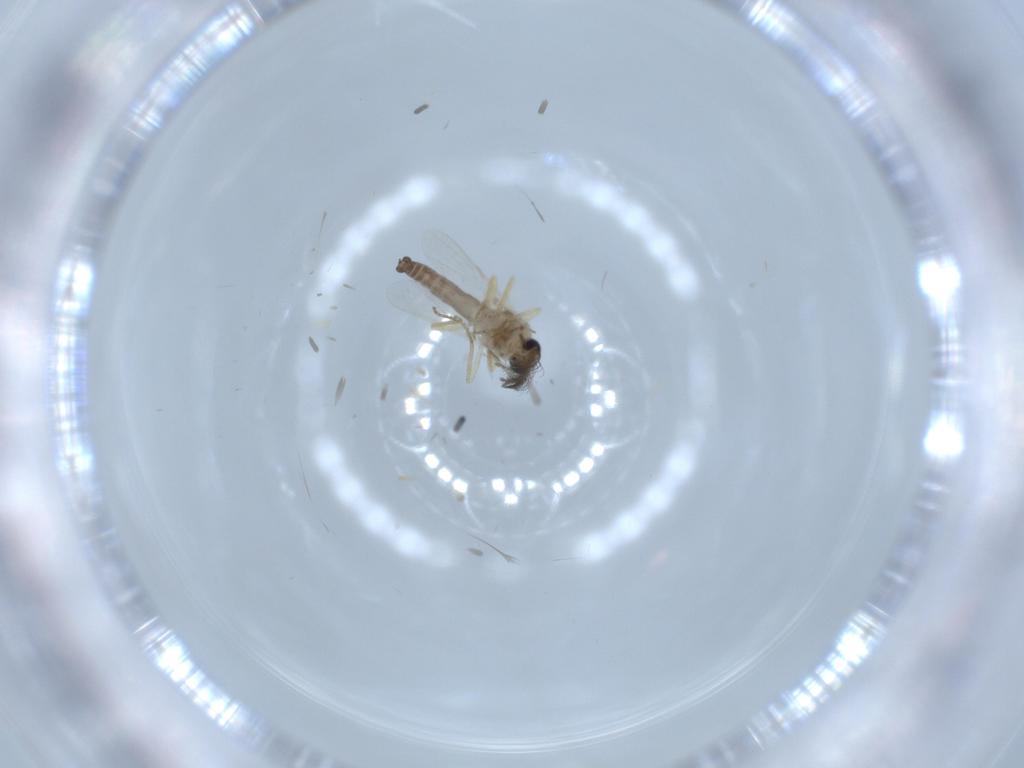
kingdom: Animalia
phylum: Arthropoda
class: Insecta
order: Diptera
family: Ceratopogonidae
